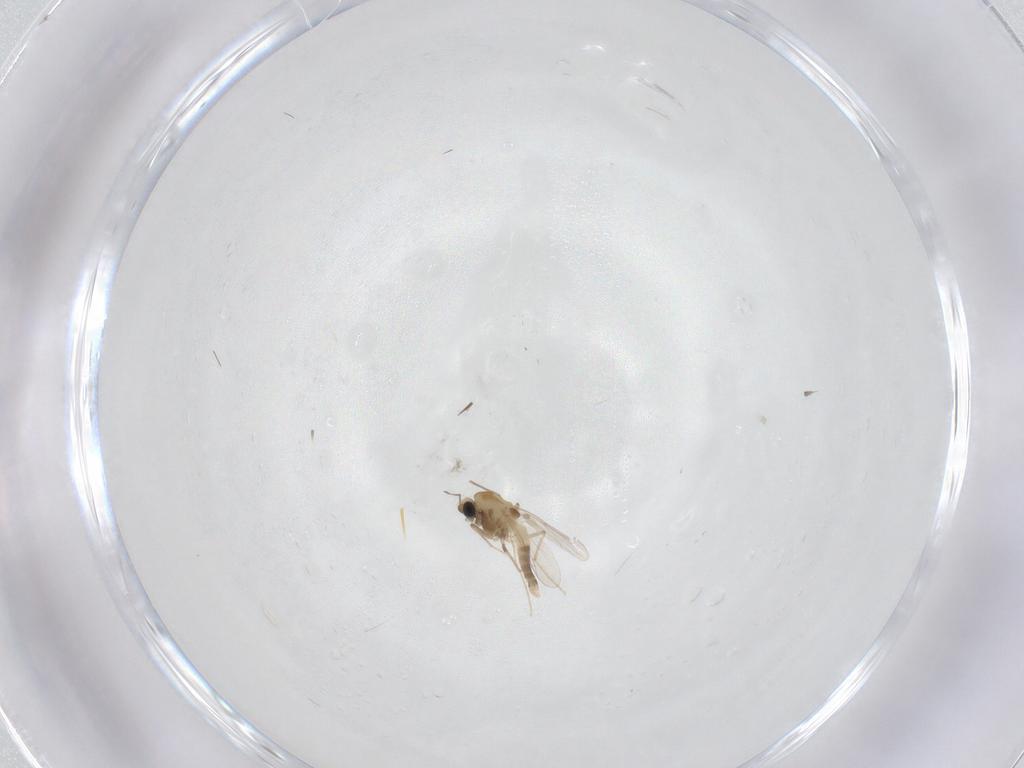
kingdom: Animalia
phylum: Arthropoda
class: Insecta
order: Diptera
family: Chironomidae
